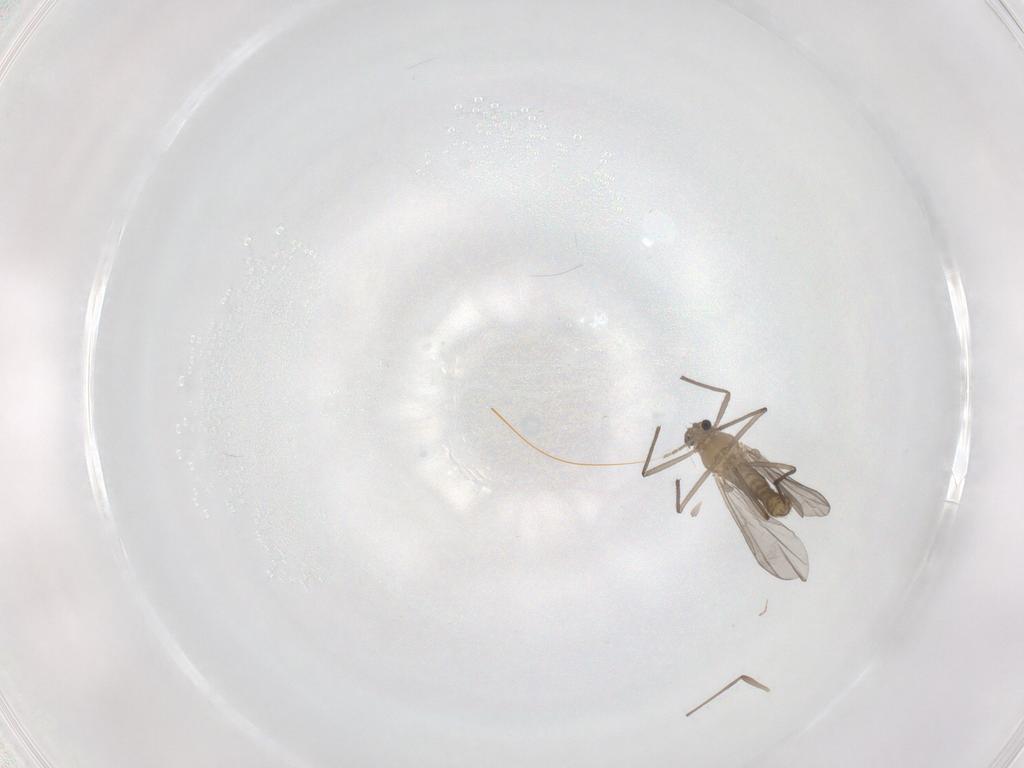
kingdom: Animalia
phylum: Arthropoda
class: Insecta
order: Diptera
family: Chironomidae
